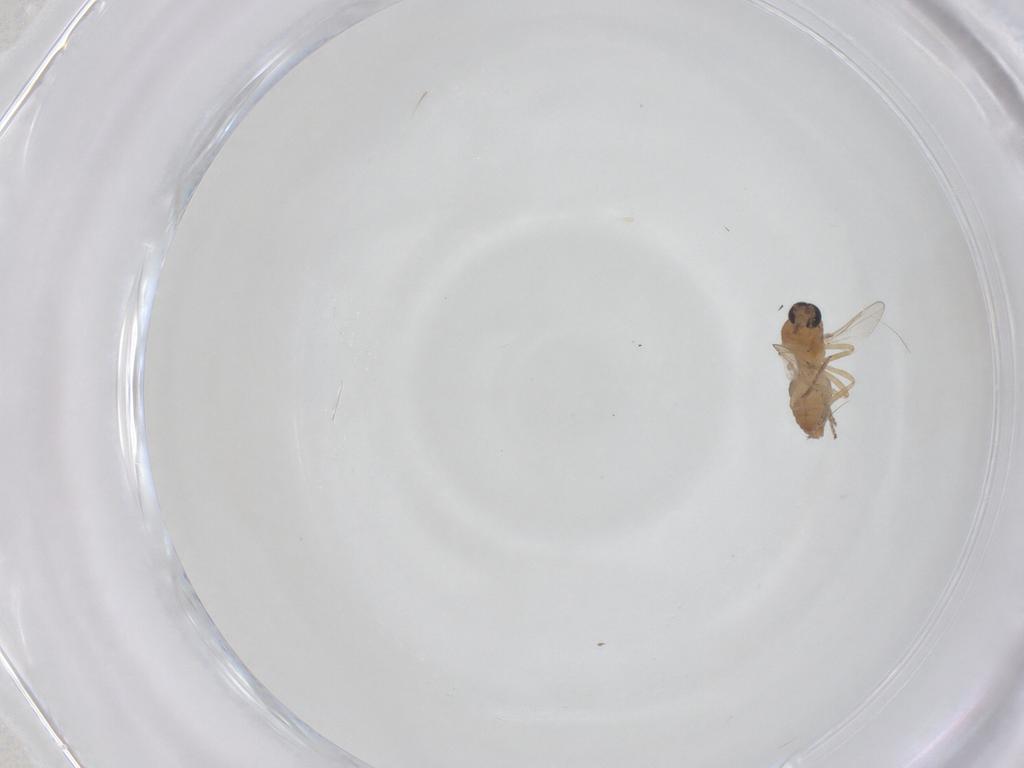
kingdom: Animalia
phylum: Arthropoda
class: Insecta
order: Diptera
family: Ceratopogonidae
